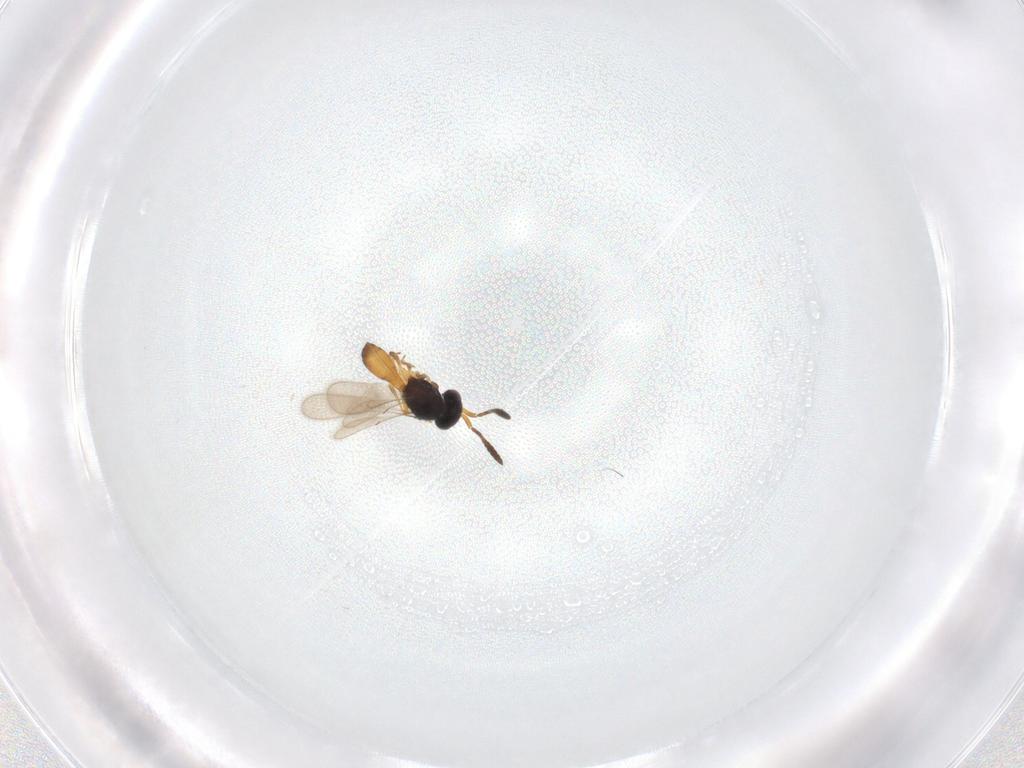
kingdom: Animalia
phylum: Arthropoda
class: Insecta
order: Hymenoptera
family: Scelionidae
